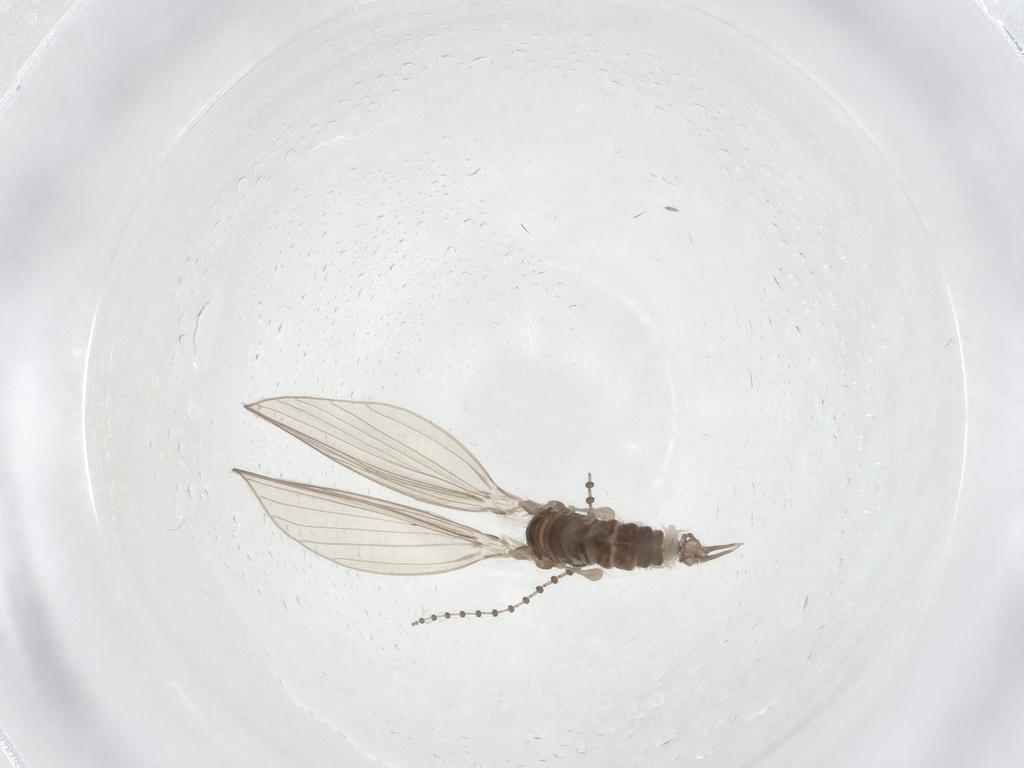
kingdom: Animalia
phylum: Arthropoda
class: Insecta
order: Diptera
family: Psychodidae
